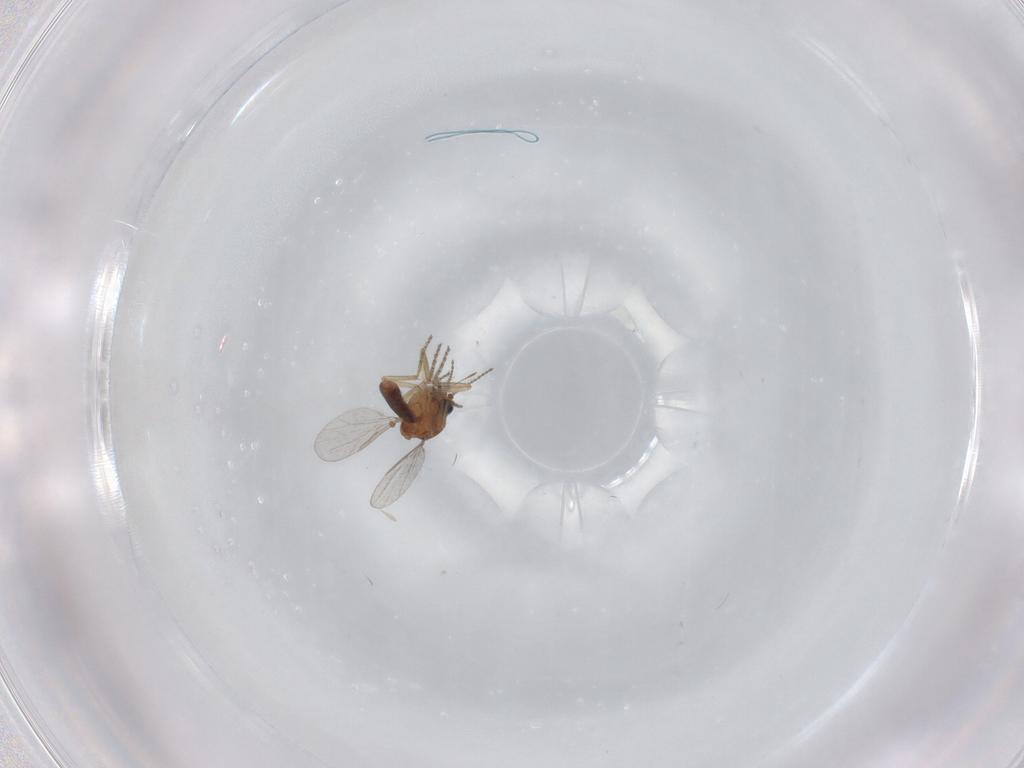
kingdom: Animalia
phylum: Arthropoda
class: Insecta
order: Diptera
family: Ceratopogonidae
